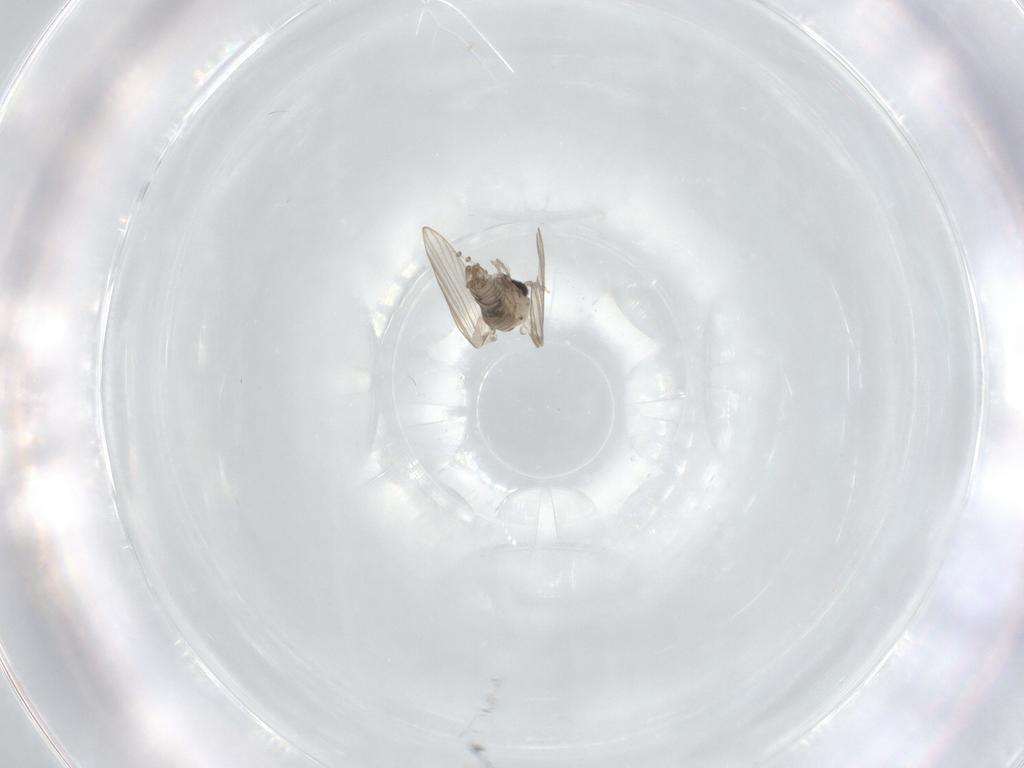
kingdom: Animalia
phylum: Arthropoda
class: Insecta
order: Diptera
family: Psychodidae
